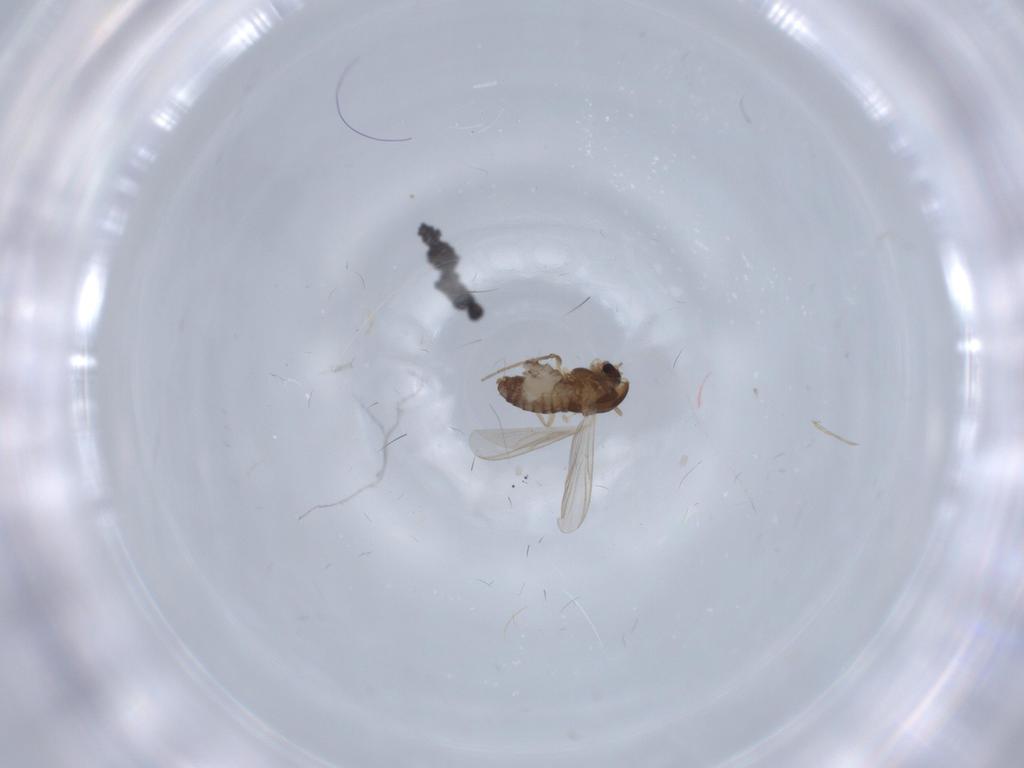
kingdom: Animalia
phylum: Arthropoda
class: Insecta
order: Diptera
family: Chironomidae
